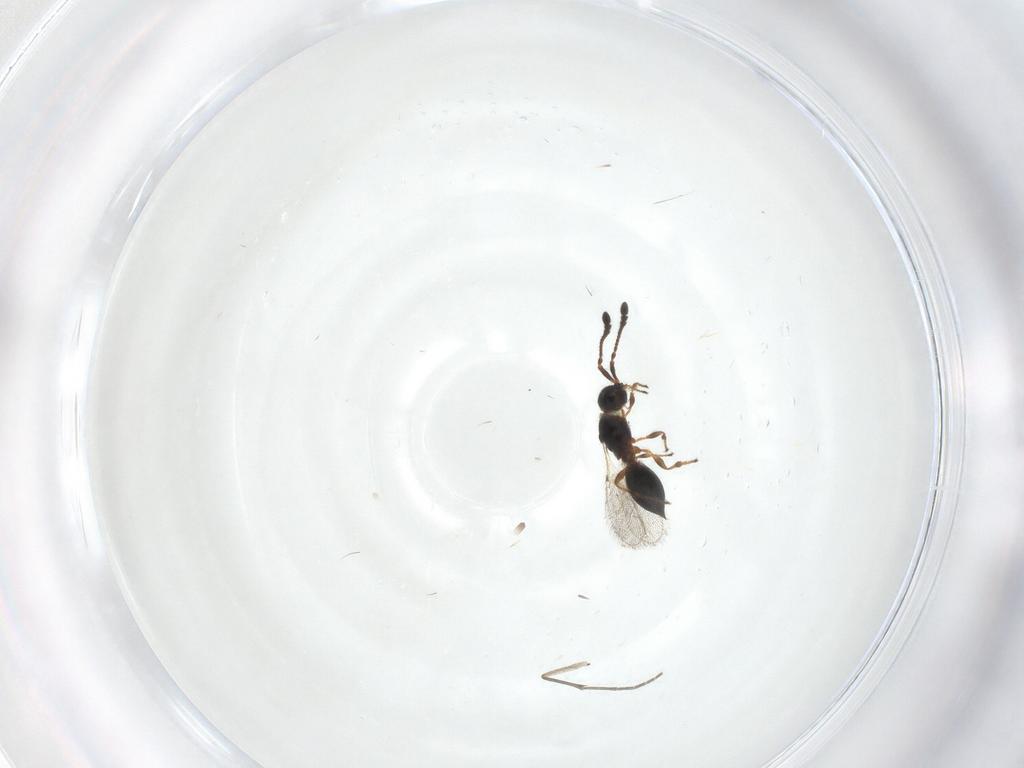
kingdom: Animalia
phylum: Arthropoda
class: Insecta
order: Hymenoptera
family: Diapriidae
